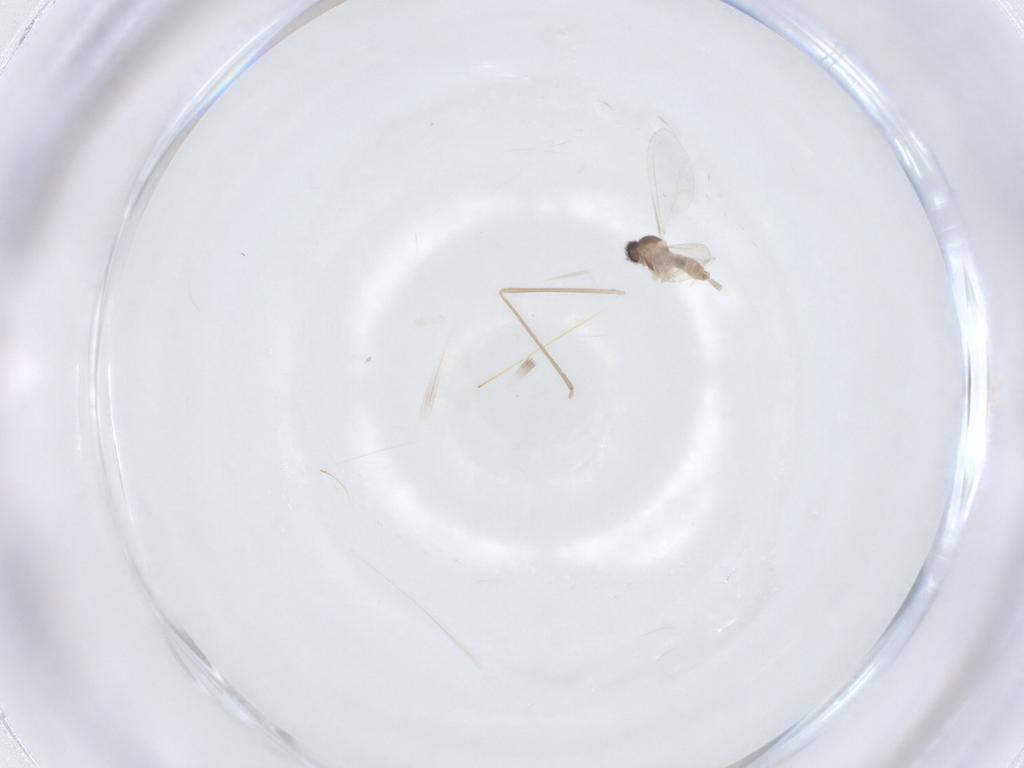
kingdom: Animalia
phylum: Arthropoda
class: Insecta
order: Diptera
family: Cecidomyiidae
